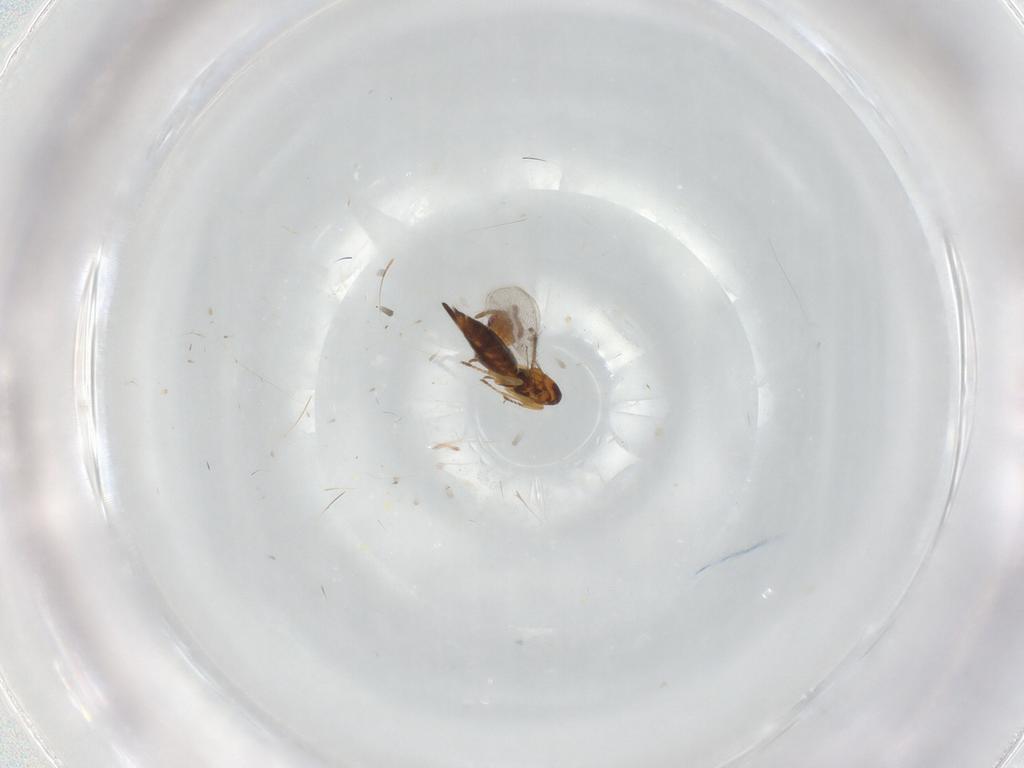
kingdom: Animalia
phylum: Arthropoda
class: Insecta
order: Hymenoptera
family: Eulophidae
